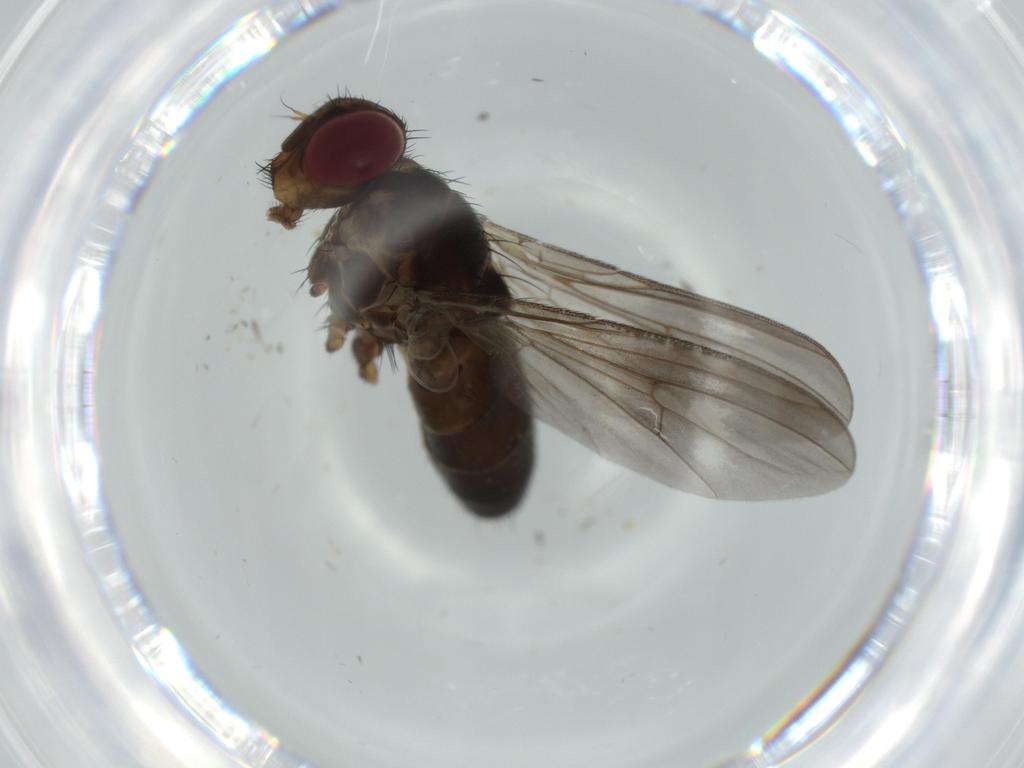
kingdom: Animalia
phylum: Arthropoda
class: Insecta
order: Diptera
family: Calliphoridae
